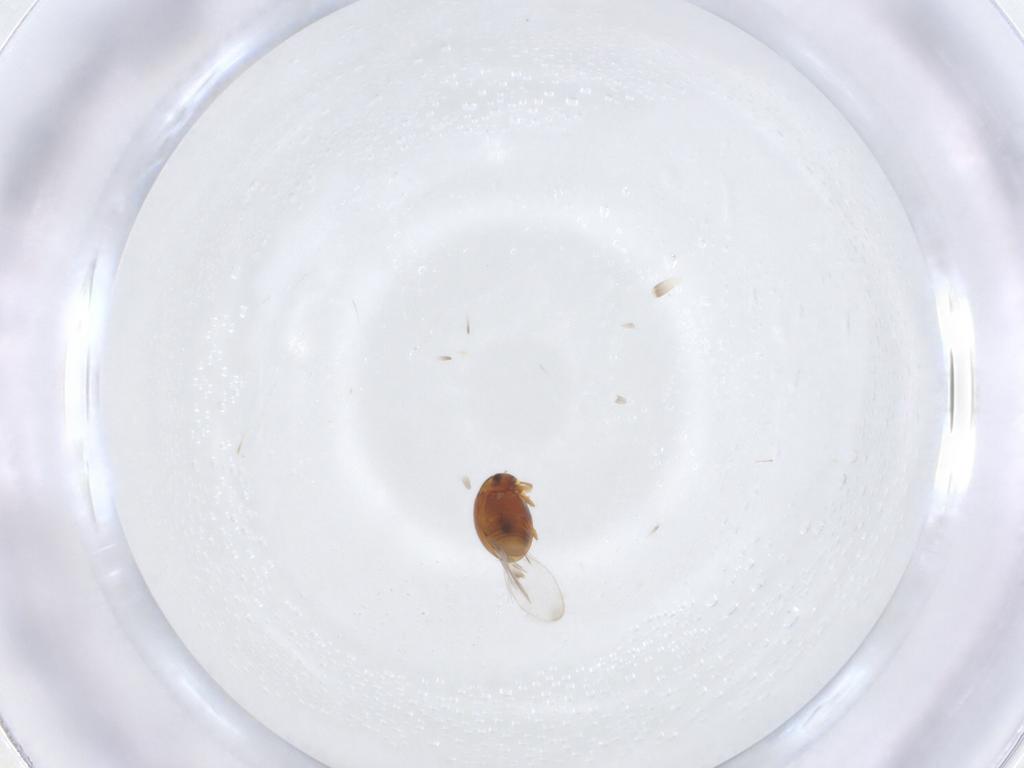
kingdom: Animalia
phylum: Arthropoda
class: Insecta
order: Coleoptera
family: Corylophidae
